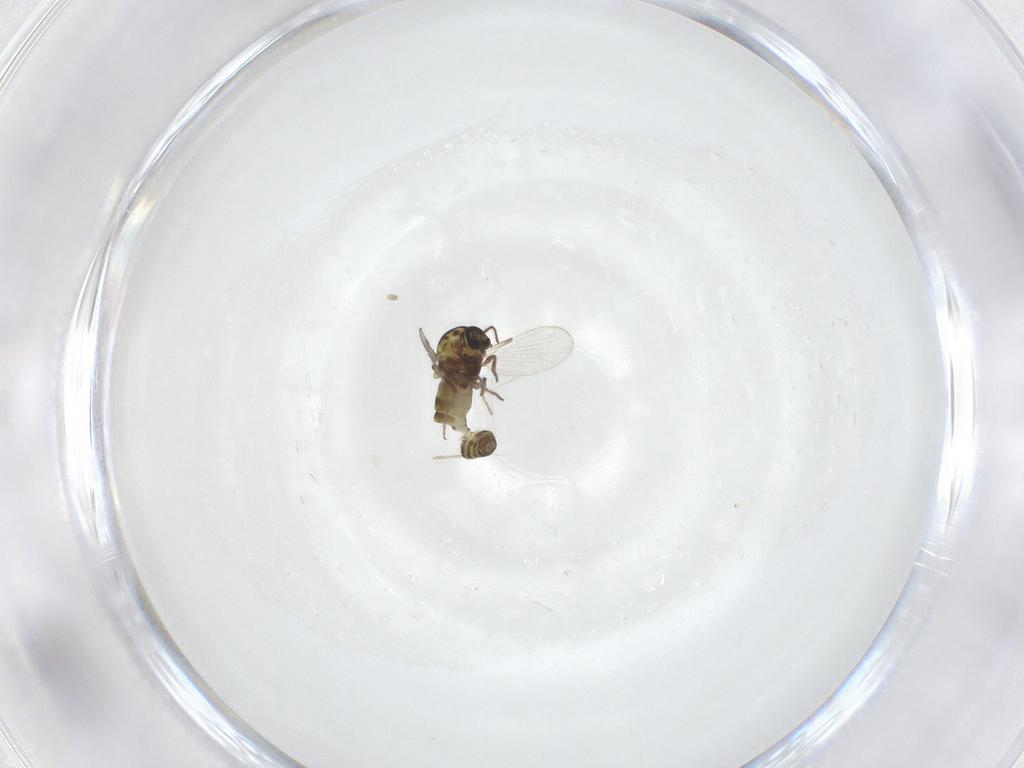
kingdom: Animalia
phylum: Arthropoda
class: Insecta
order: Diptera
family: Ceratopogonidae
